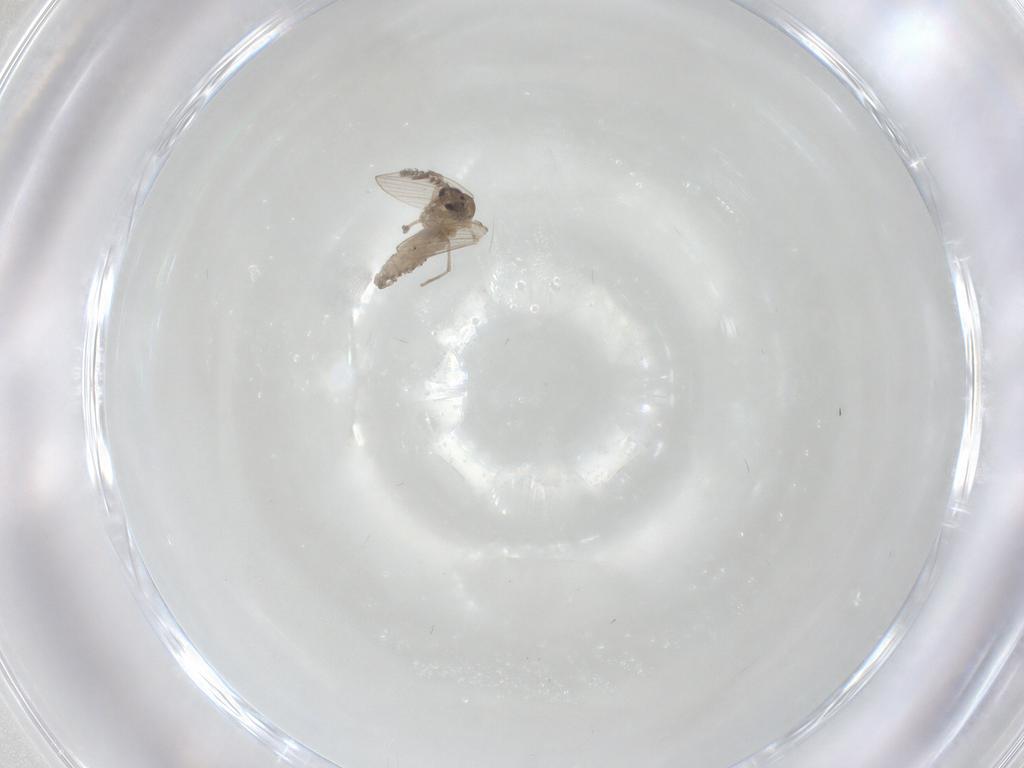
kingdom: Animalia
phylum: Arthropoda
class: Insecta
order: Diptera
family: Psychodidae
